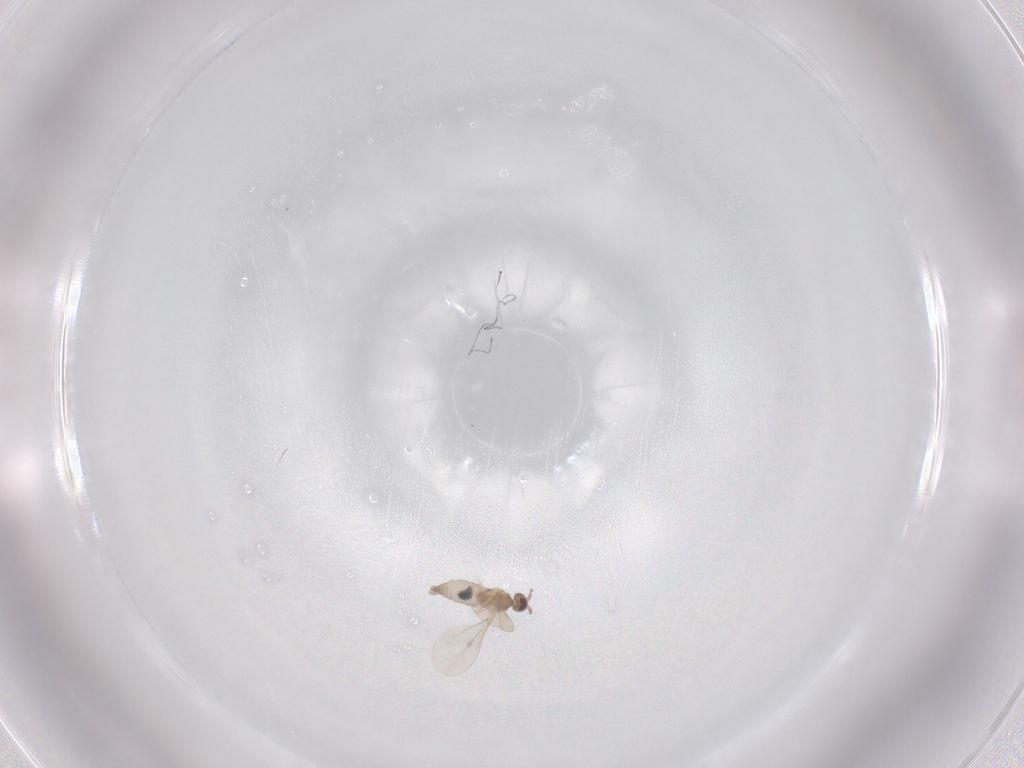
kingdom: Animalia
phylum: Arthropoda
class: Insecta
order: Diptera
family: Cecidomyiidae
